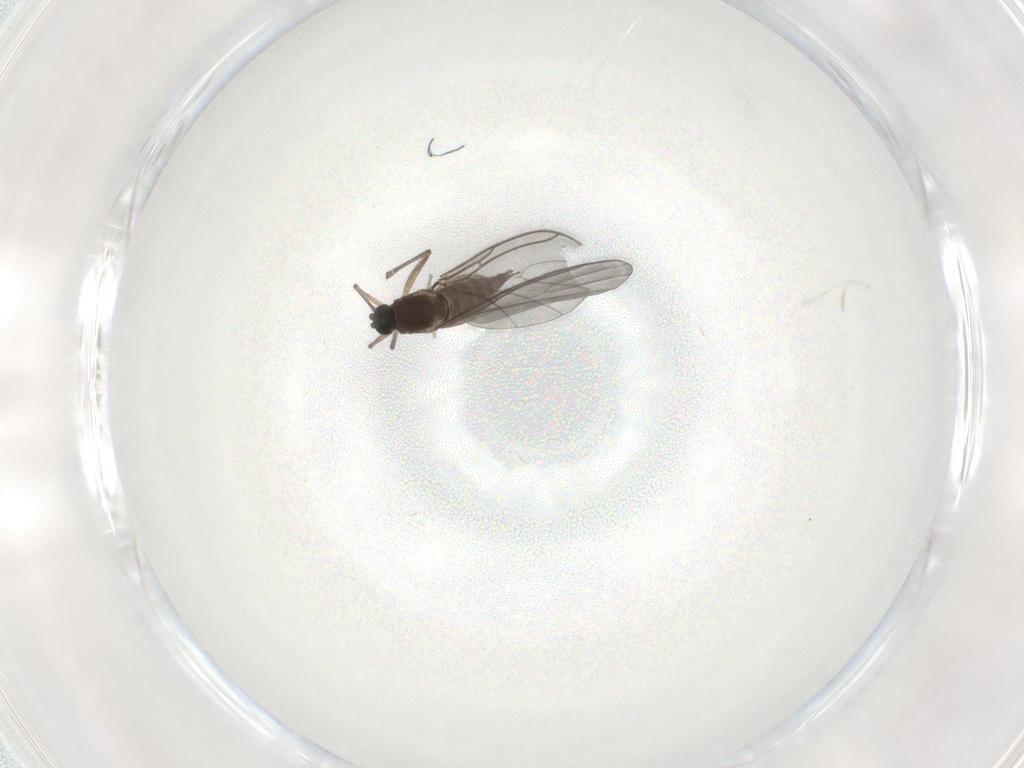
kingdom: Animalia
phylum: Arthropoda
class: Insecta
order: Diptera
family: Sciaridae
